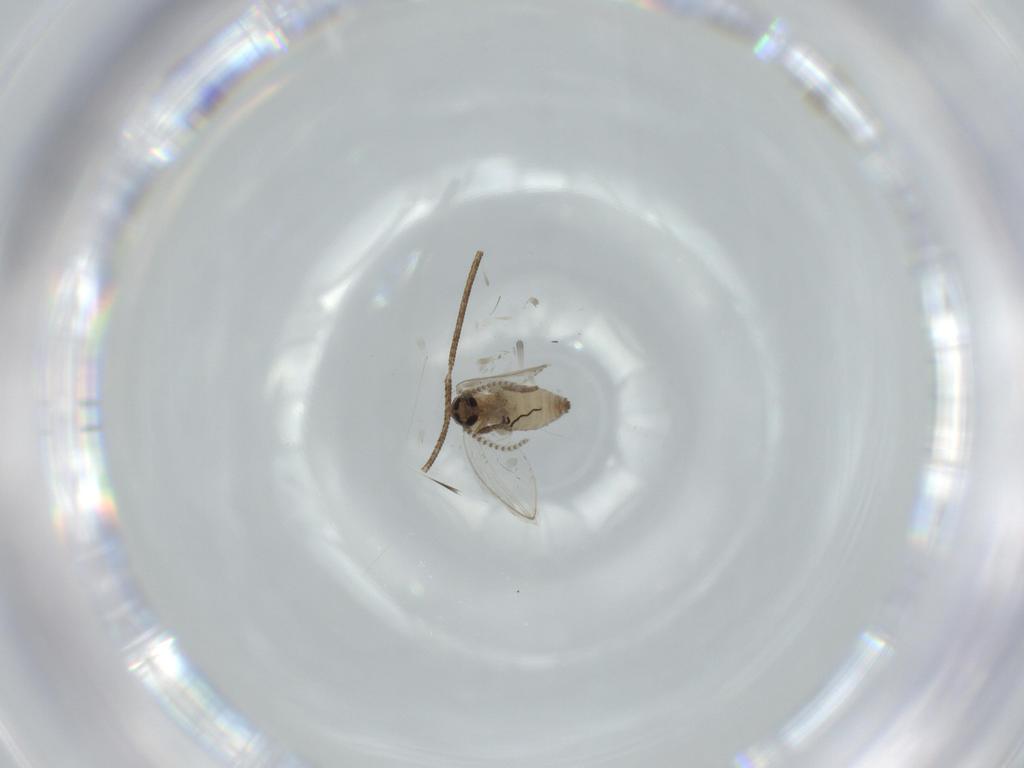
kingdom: Animalia
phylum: Arthropoda
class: Insecta
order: Diptera
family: Psychodidae
